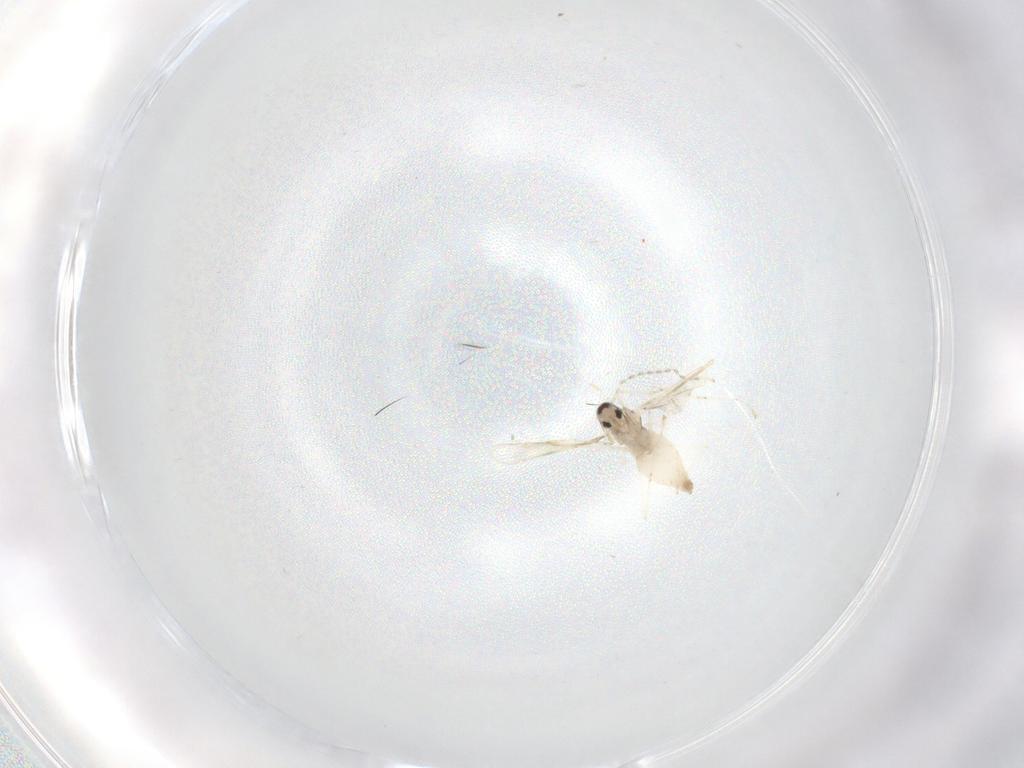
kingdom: Animalia
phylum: Arthropoda
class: Insecta
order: Diptera
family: Cecidomyiidae
